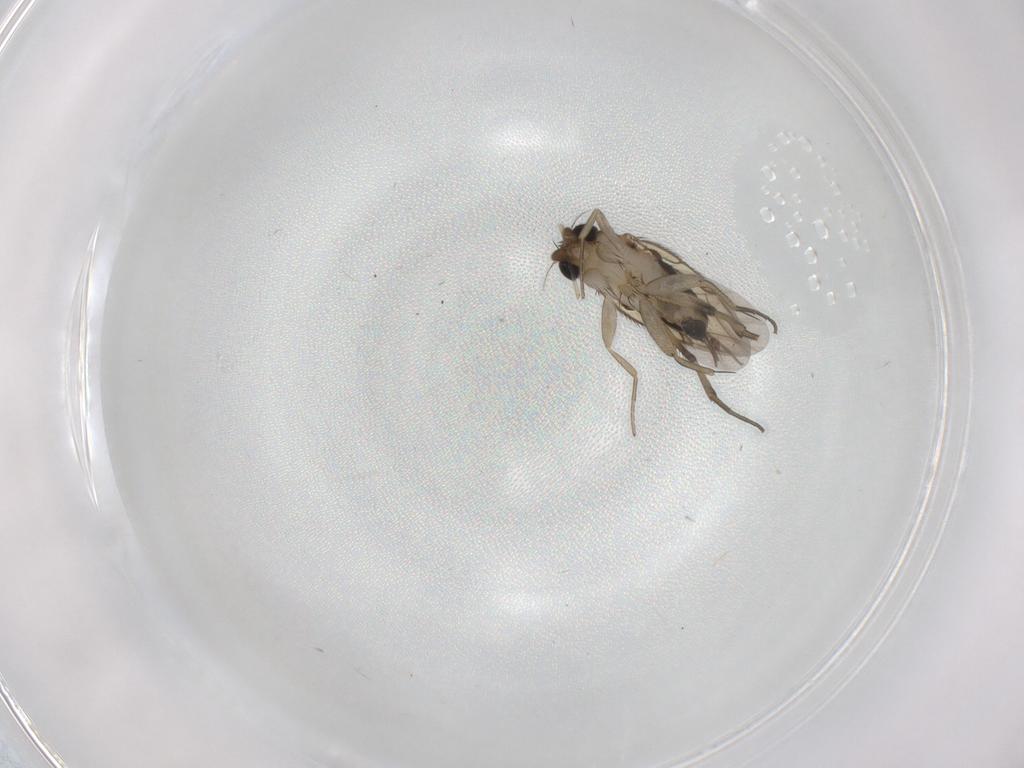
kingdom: Animalia
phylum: Arthropoda
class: Insecta
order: Diptera
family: Phoridae
